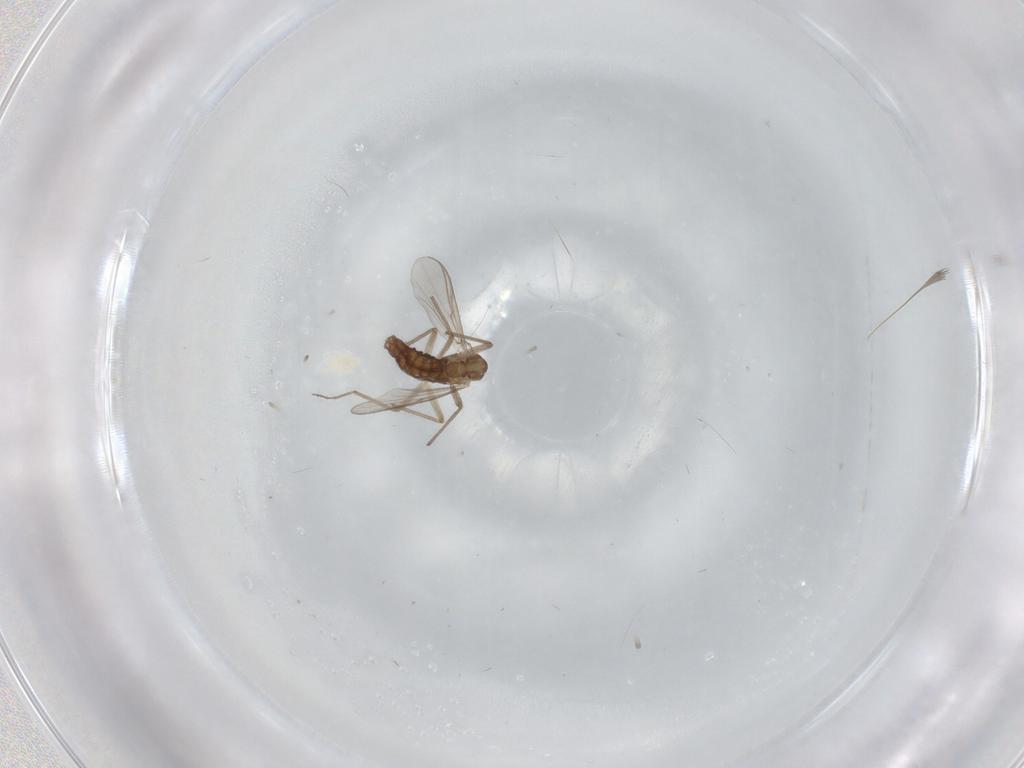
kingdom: Animalia
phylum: Arthropoda
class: Insecta
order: Diptera
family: Chironomidae
